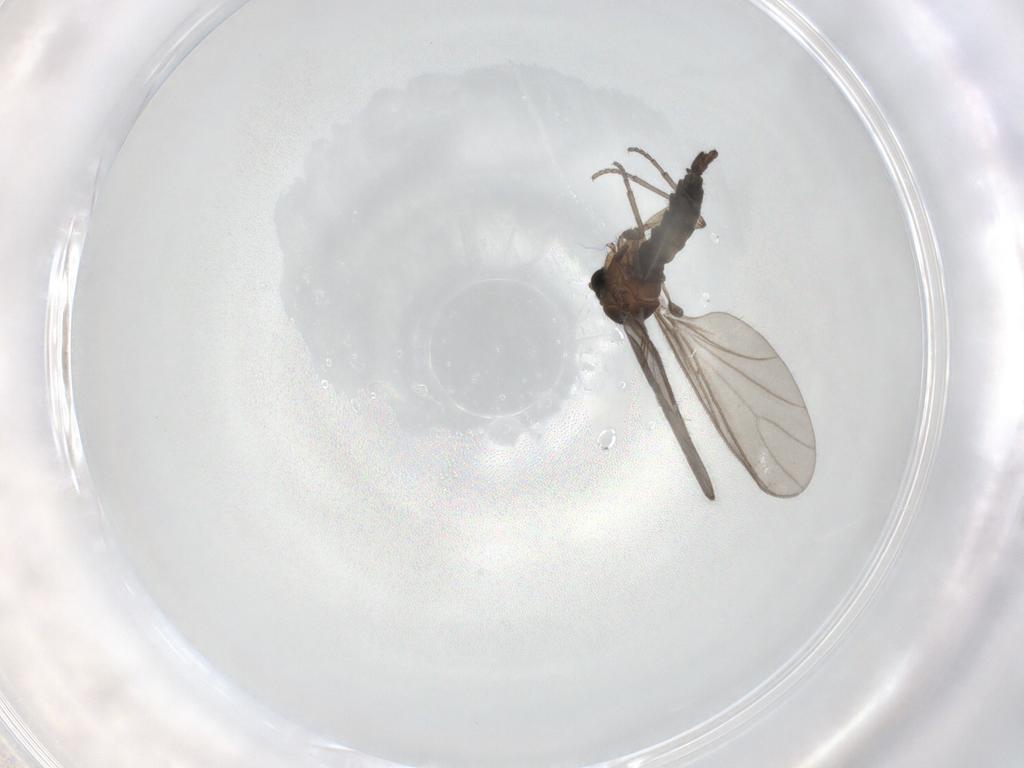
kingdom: Animalia
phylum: Arthropoda
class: Insecta
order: Diptera
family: Sciaridae
